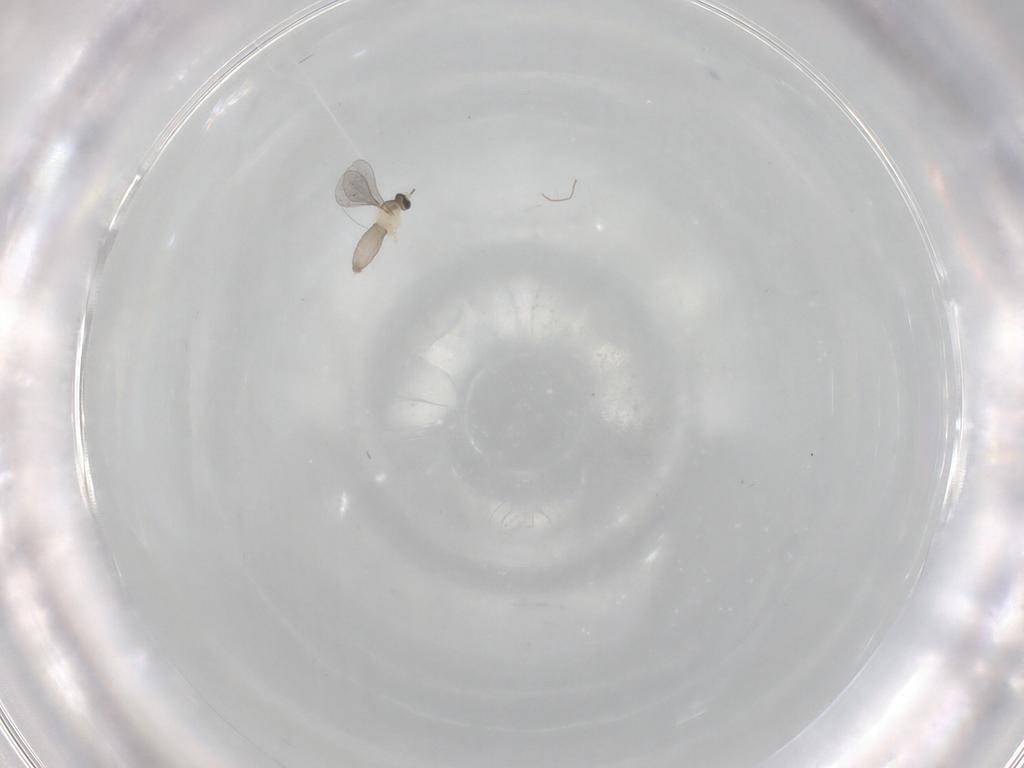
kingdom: Animalia
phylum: Arthropoda
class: Insecta
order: Diptera
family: Cecidomyiidae
